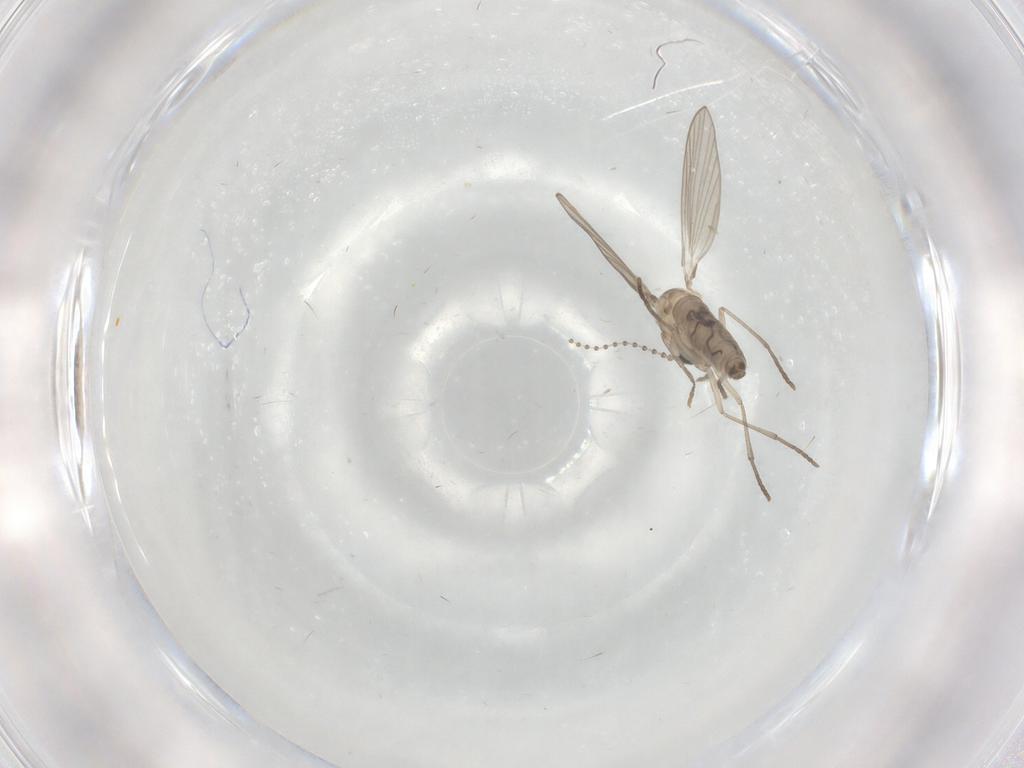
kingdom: Animalia
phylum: Arthropoda
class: Insecta
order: Diptera
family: Psychodidae
